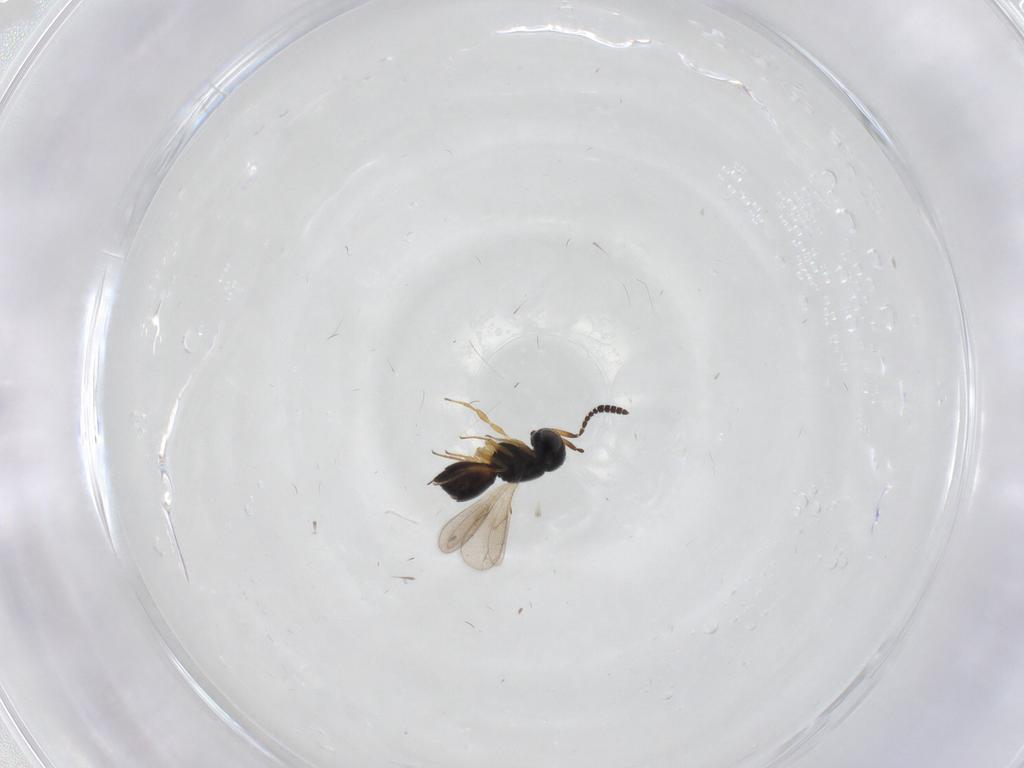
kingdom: Animalia
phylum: Arthropoda
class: Insecta
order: Hymenoptera
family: Scelionidae
